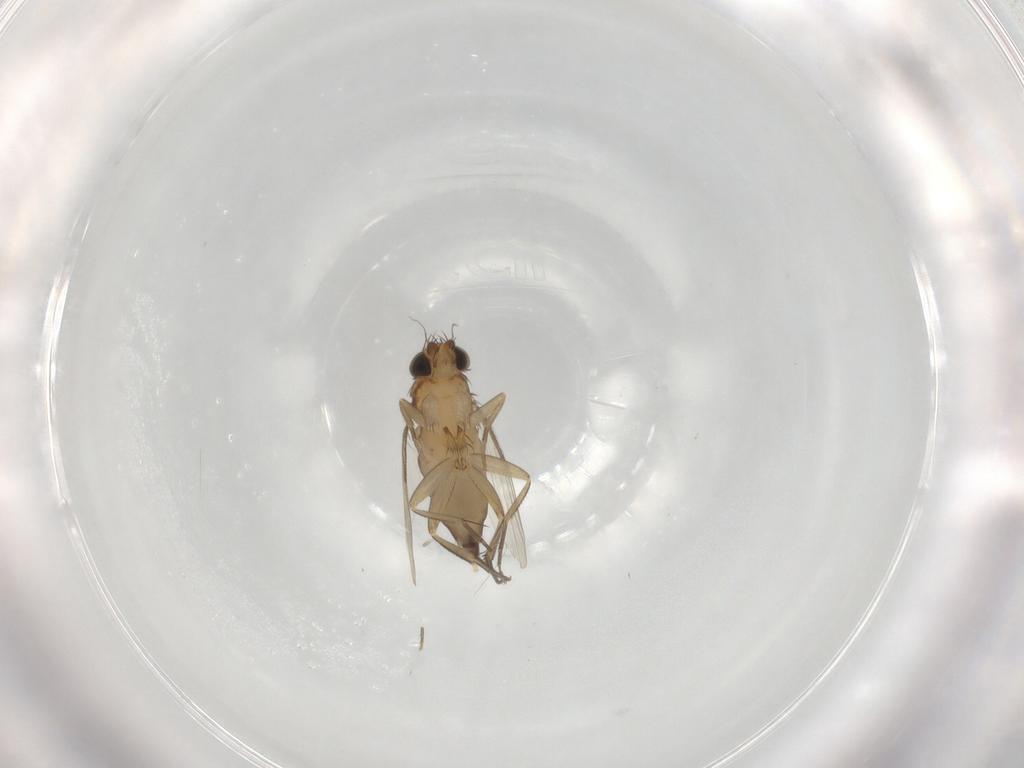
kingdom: Animalia
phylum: Arthropoda
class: Insecta
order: Diptera
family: Phoridae
